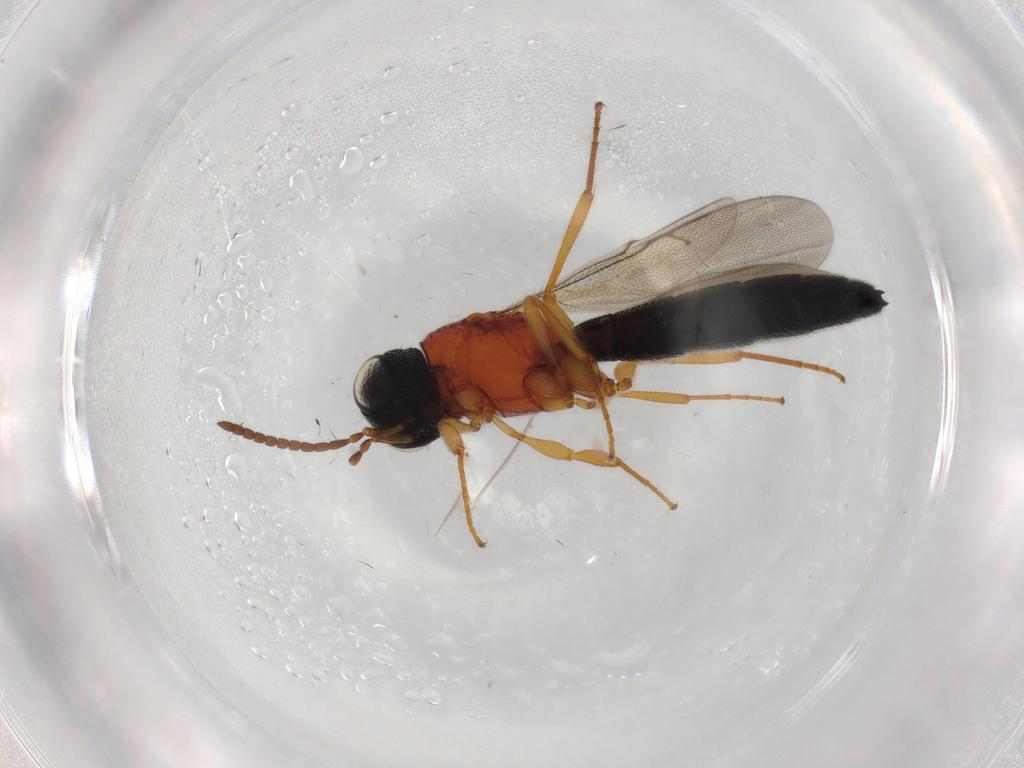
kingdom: Animalia
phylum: Arthropoda
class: Insecta
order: Hymenoptera
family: Scelionidae
